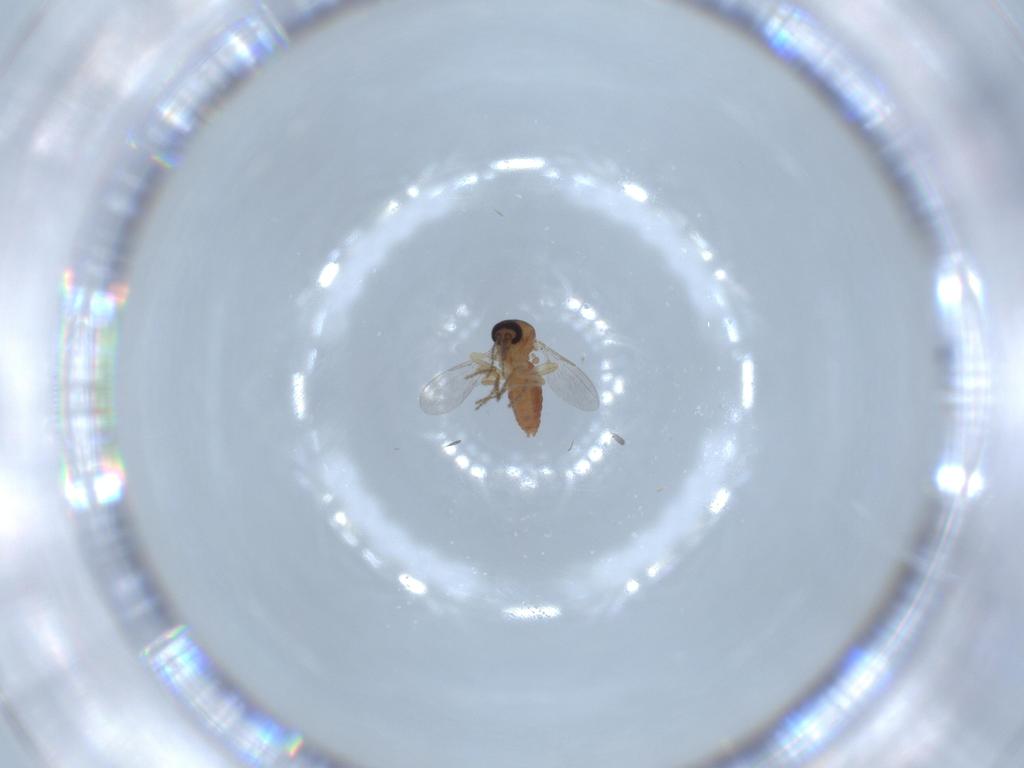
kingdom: Animalia
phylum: Arthropoda
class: Insecta
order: Diptera
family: Ceratopogonidae
